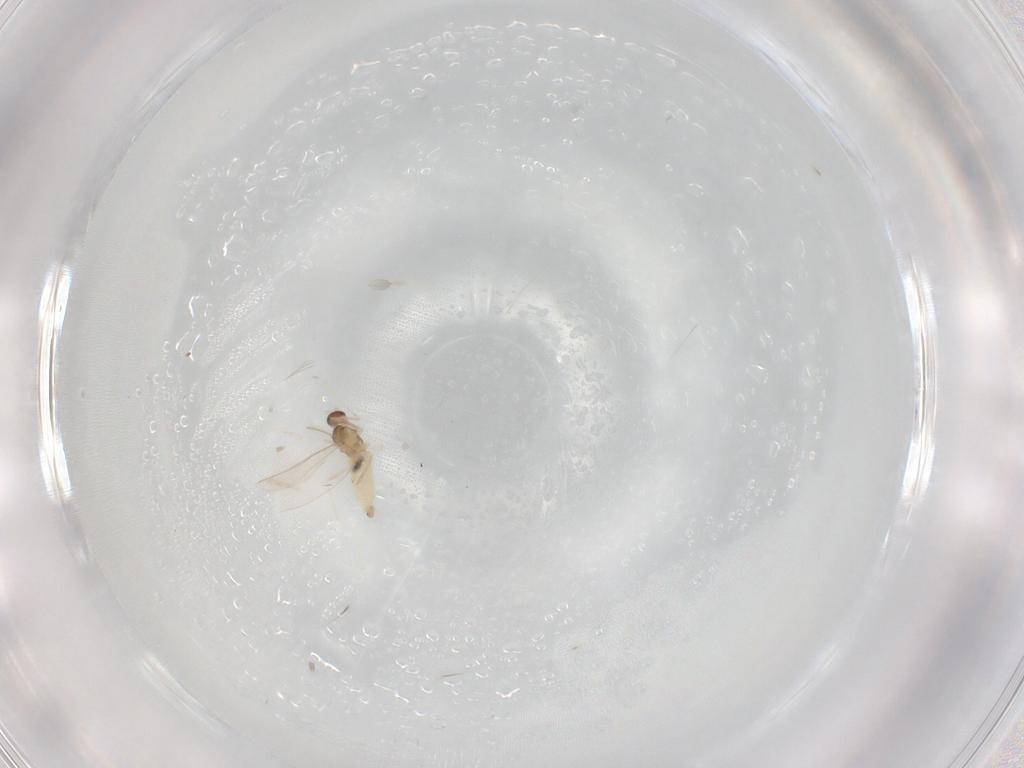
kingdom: Animalia
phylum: Arthropoda
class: Insecta
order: Diptera
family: Cecidomyiidae
